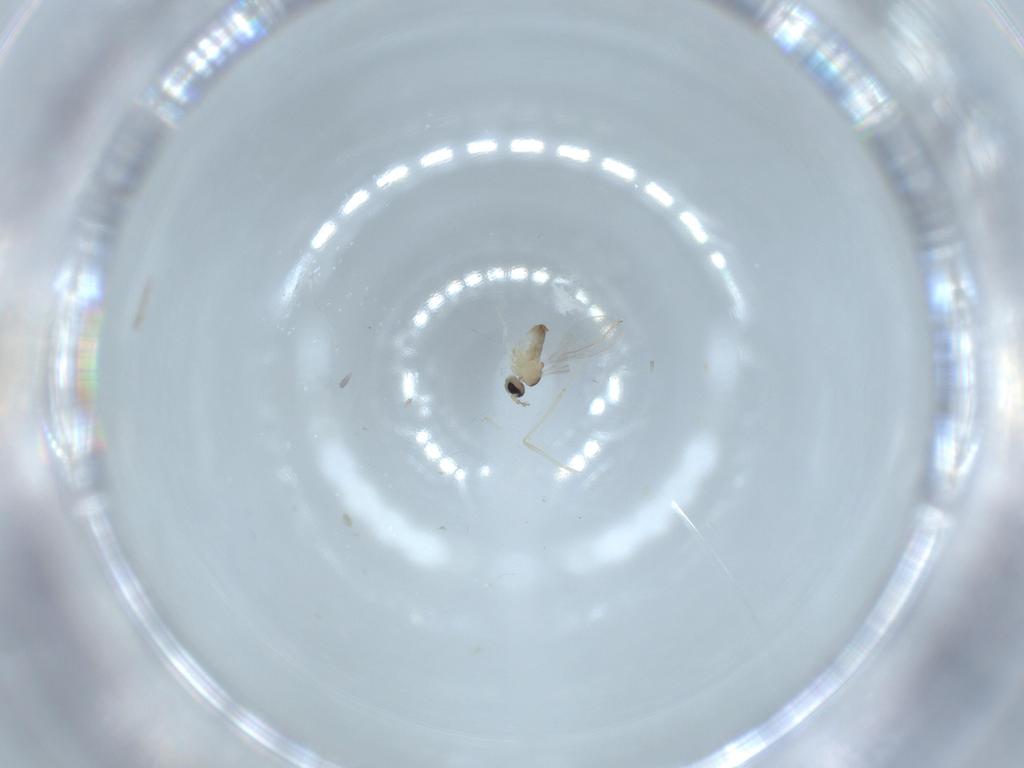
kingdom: Animalia
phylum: Arthropoda
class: Insecta
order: Diptera
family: Cecidomyiidae
